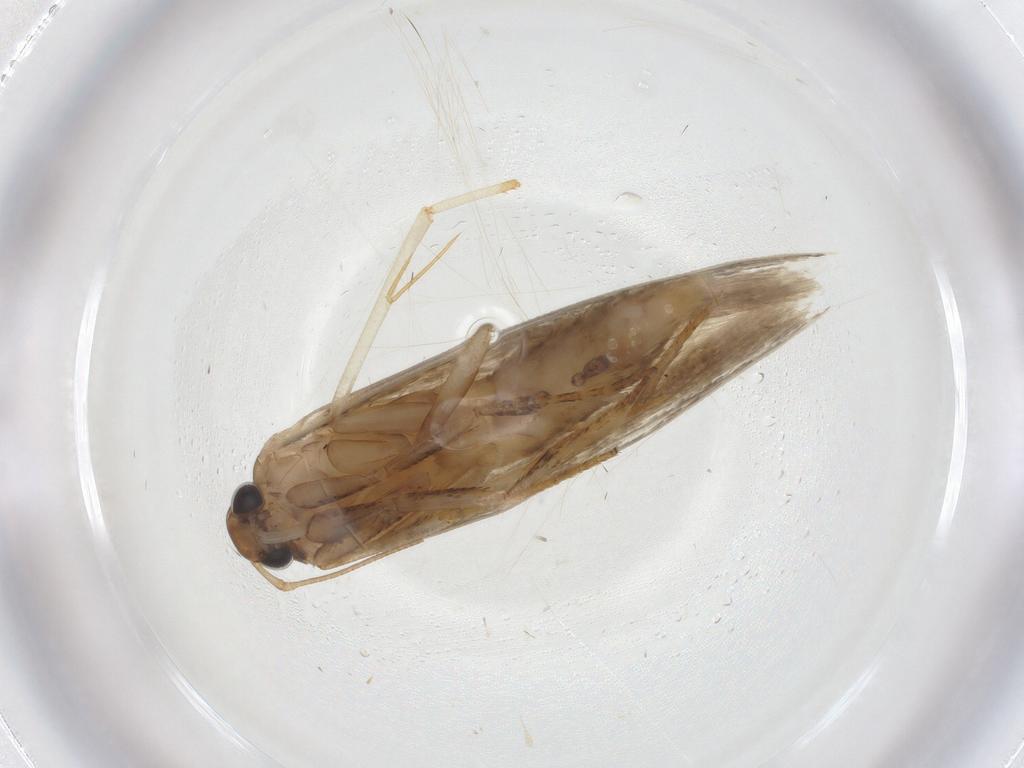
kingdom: Animalia
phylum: Arthropoda
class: Insecta
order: Lepidoptera
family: Gelechiidae
